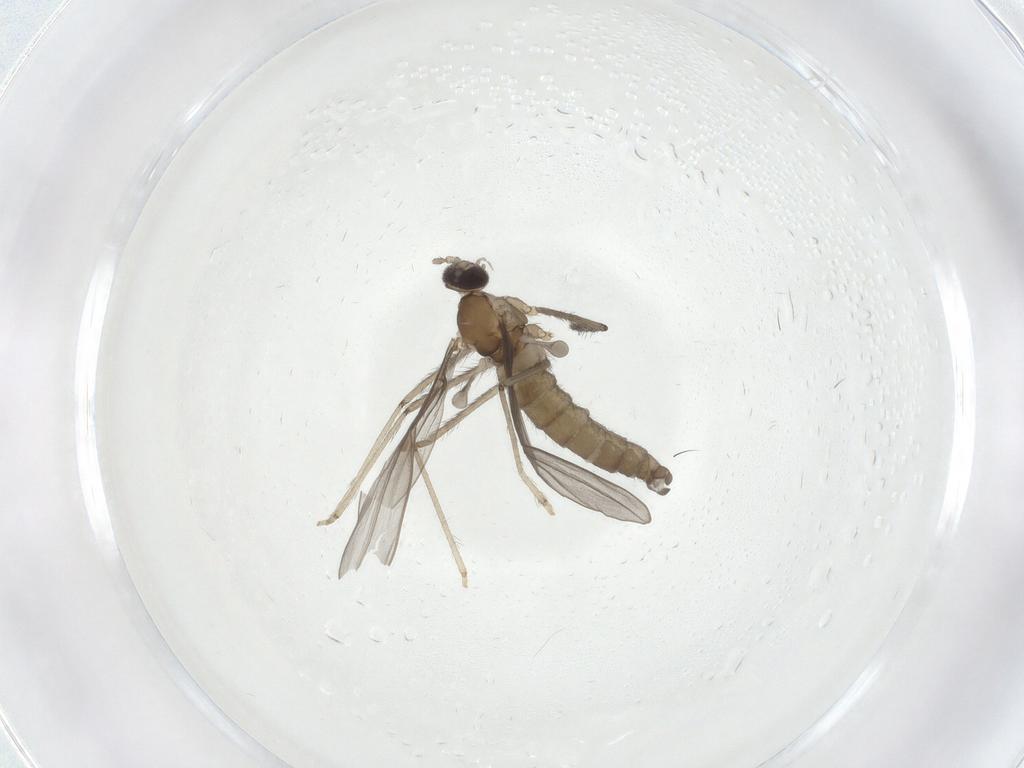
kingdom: Animalia
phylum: Arthropoda
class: Insecta
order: Diptera
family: Cecidomyiidae
